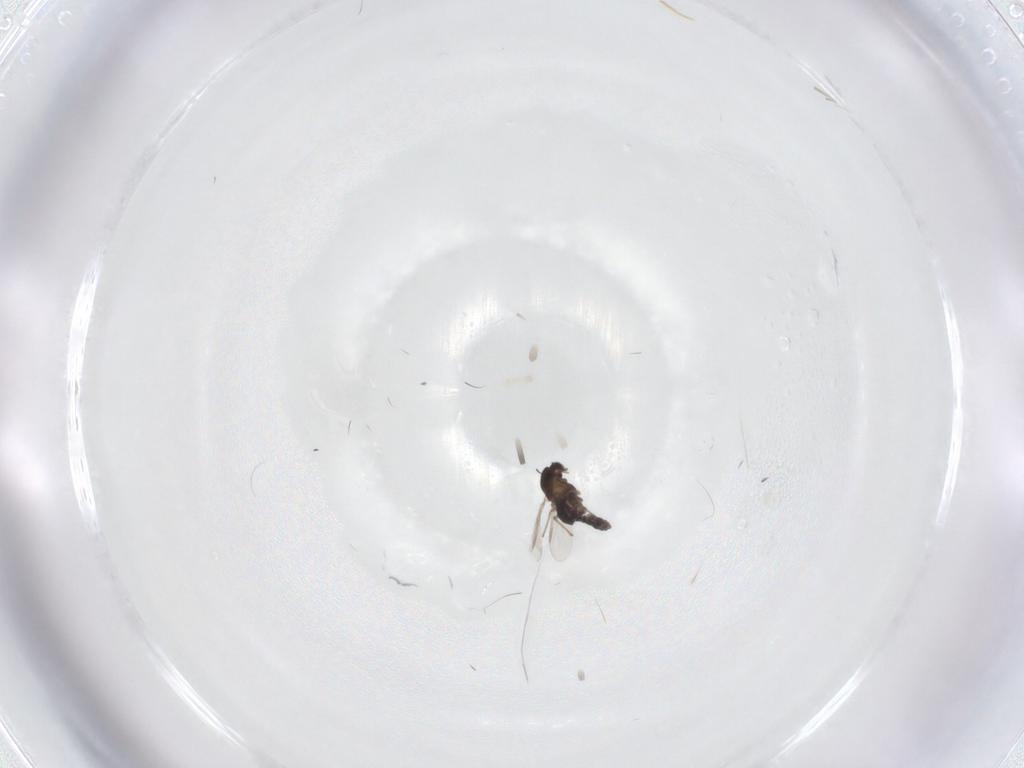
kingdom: Animalia
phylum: Arthropoda
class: Insecta
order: Diptera
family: Chironomidae
